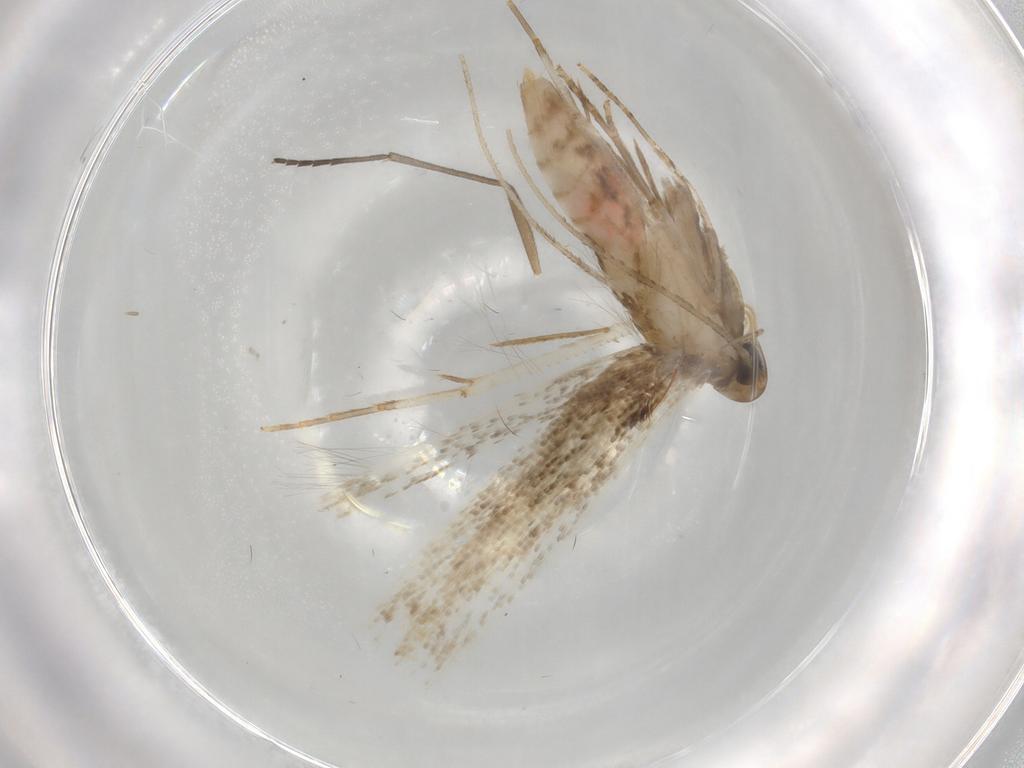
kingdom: Animalia
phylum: Arthropoda
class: Insecta
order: Lepidoptera
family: Cosmopterigidae
